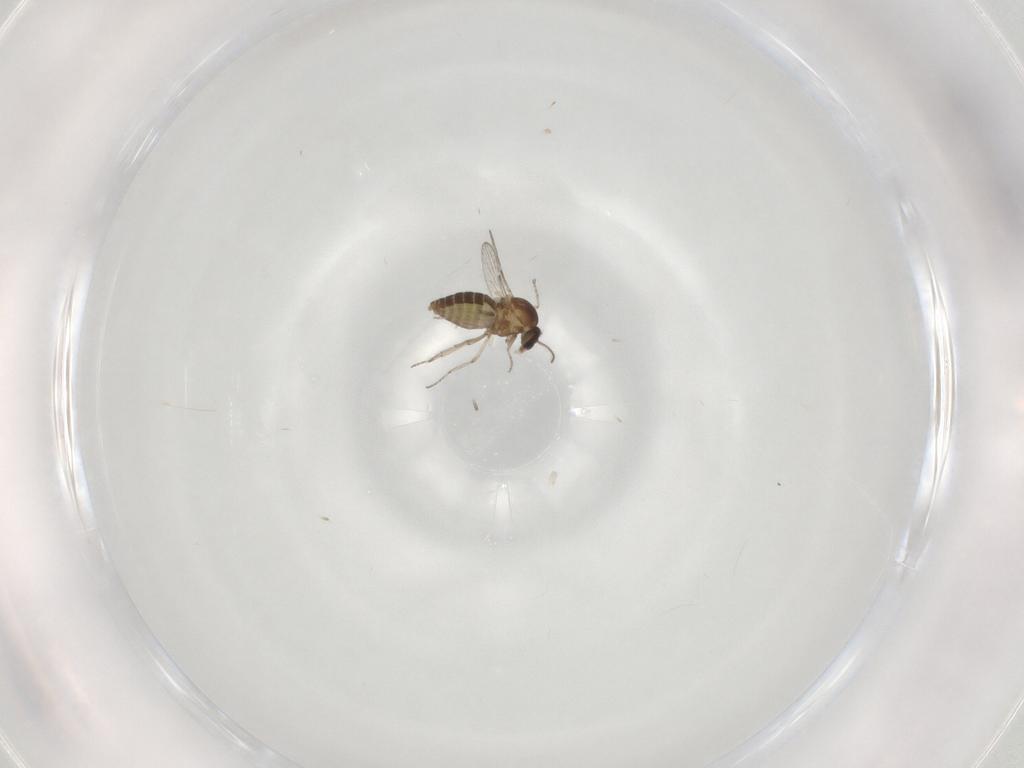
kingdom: Animalia
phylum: Arthropoda
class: Insecta
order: Diptera
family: Ceratopogonidae
